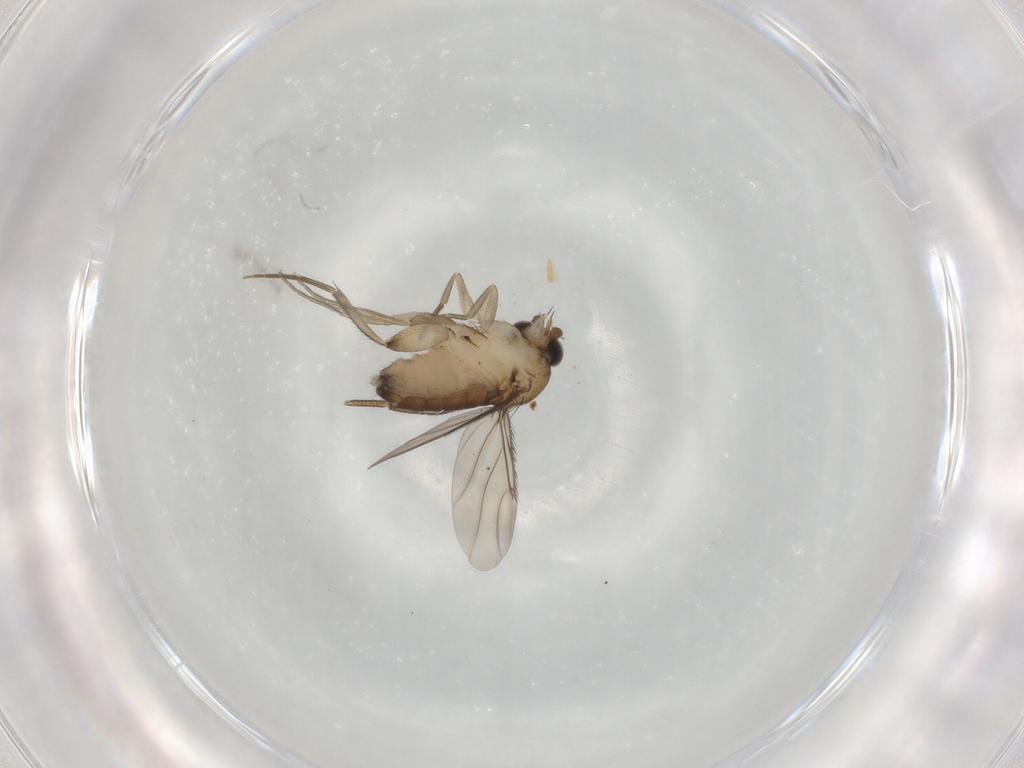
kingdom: Animalia
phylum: Arthropoda
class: Insecta
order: Diptera
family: Phoridae
